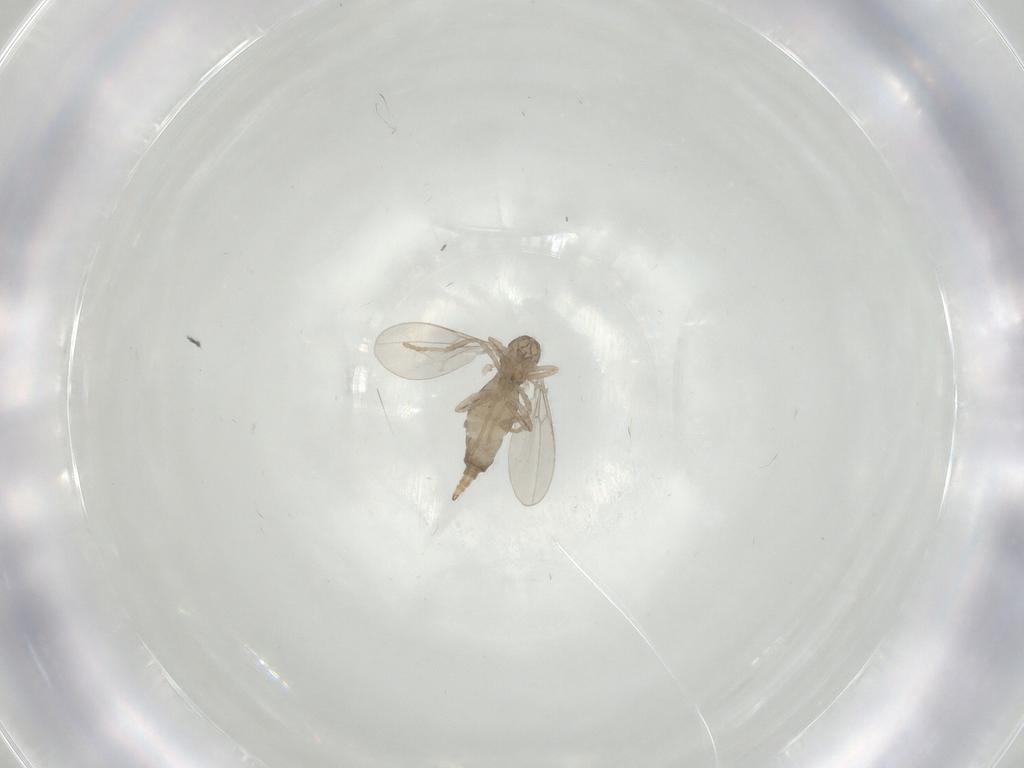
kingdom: Animalia
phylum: Arthropoda
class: Insecta
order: Diptera
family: Cecidomyiidae
